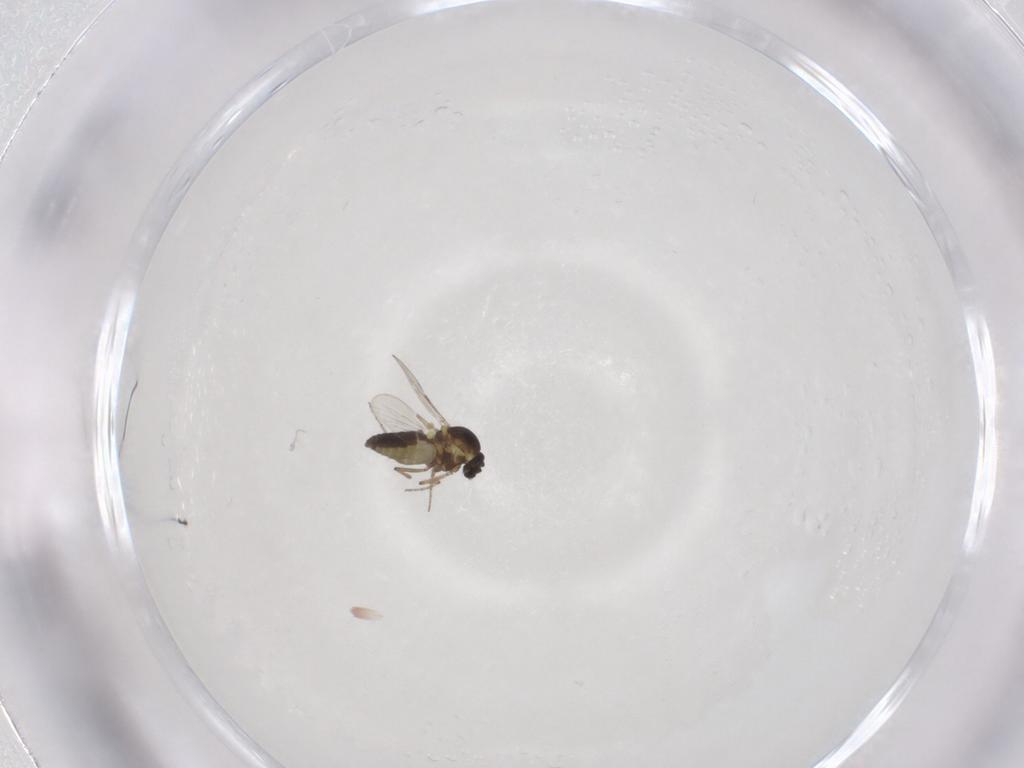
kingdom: Animalia
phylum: Arthropoda
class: Insecta
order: Diptera
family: Ceratopogonidae
